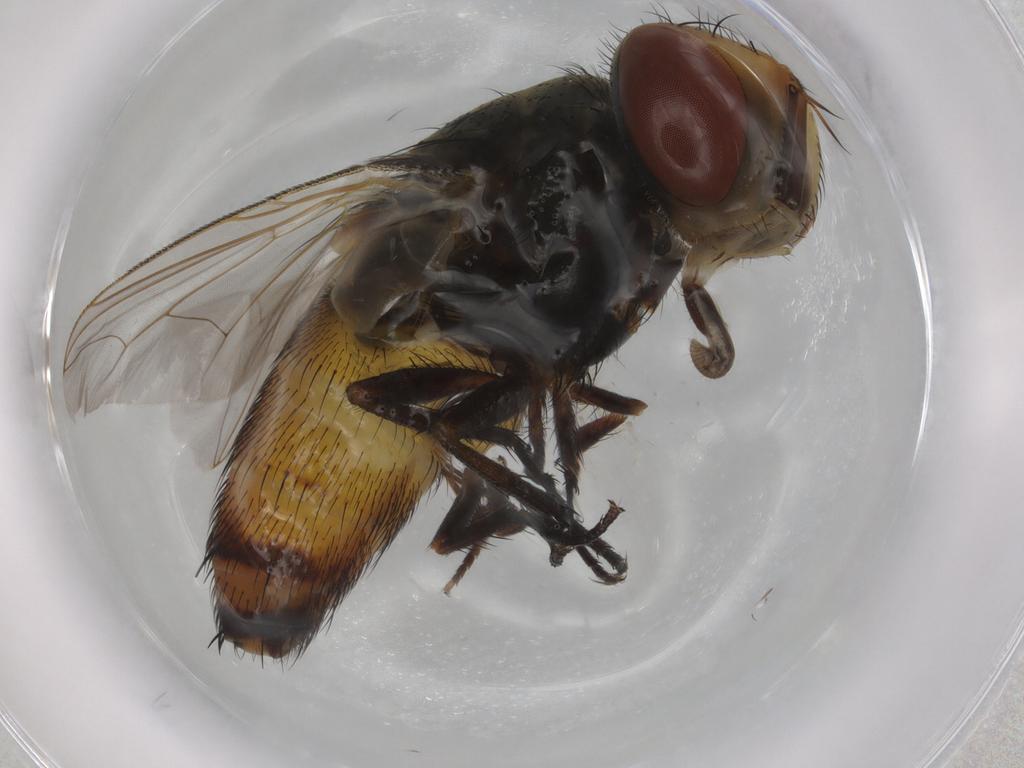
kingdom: Animalia
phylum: Arthropoda
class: Insecta
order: Diptera
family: Sarcophagidae
